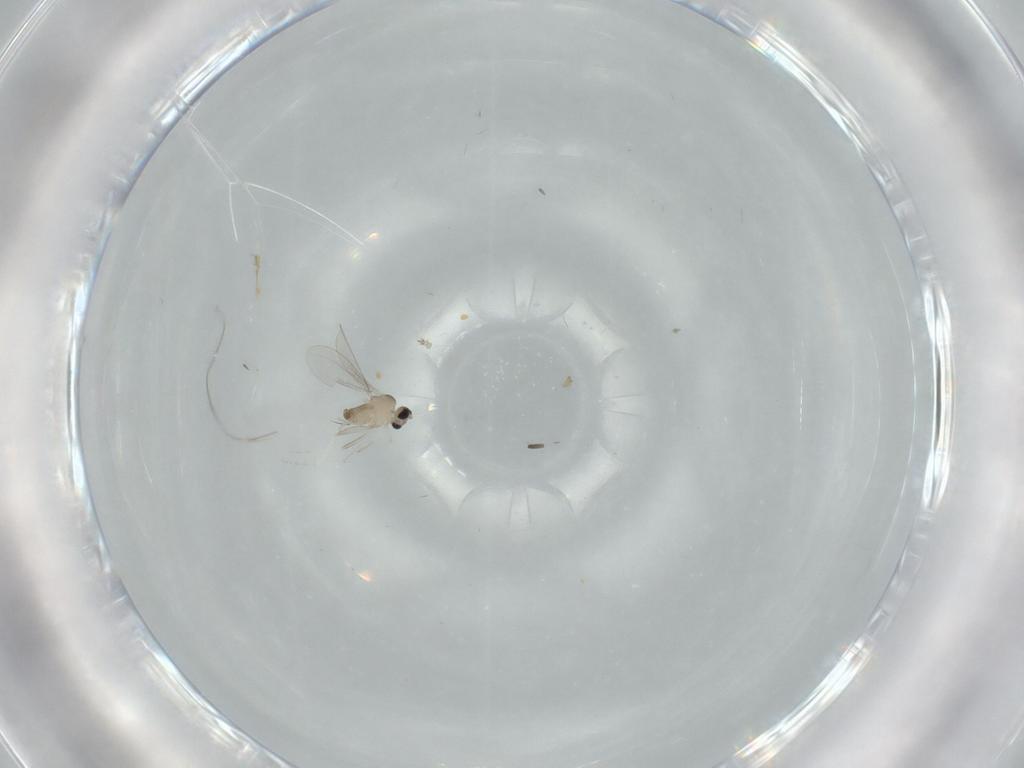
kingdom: Animalia
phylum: Arthropoda
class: Insecta
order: Diptera
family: Cecidomyiidae
